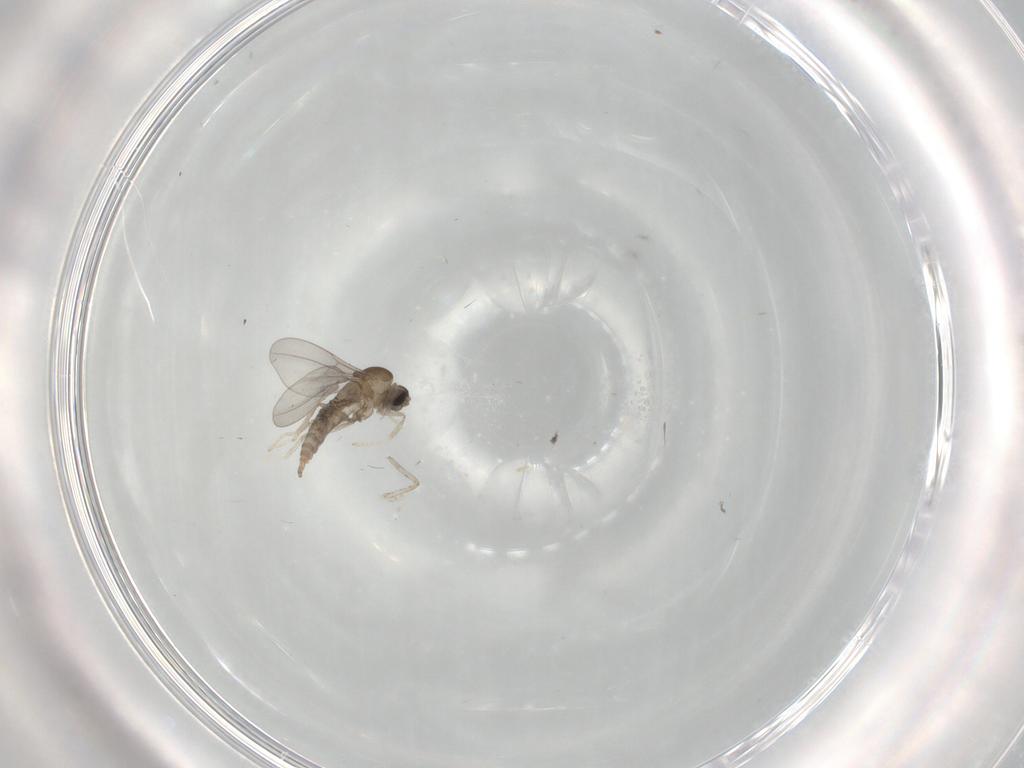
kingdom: Animalia
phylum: Arthropoda
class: Insecta
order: Diptera
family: Cecidomyiidae
